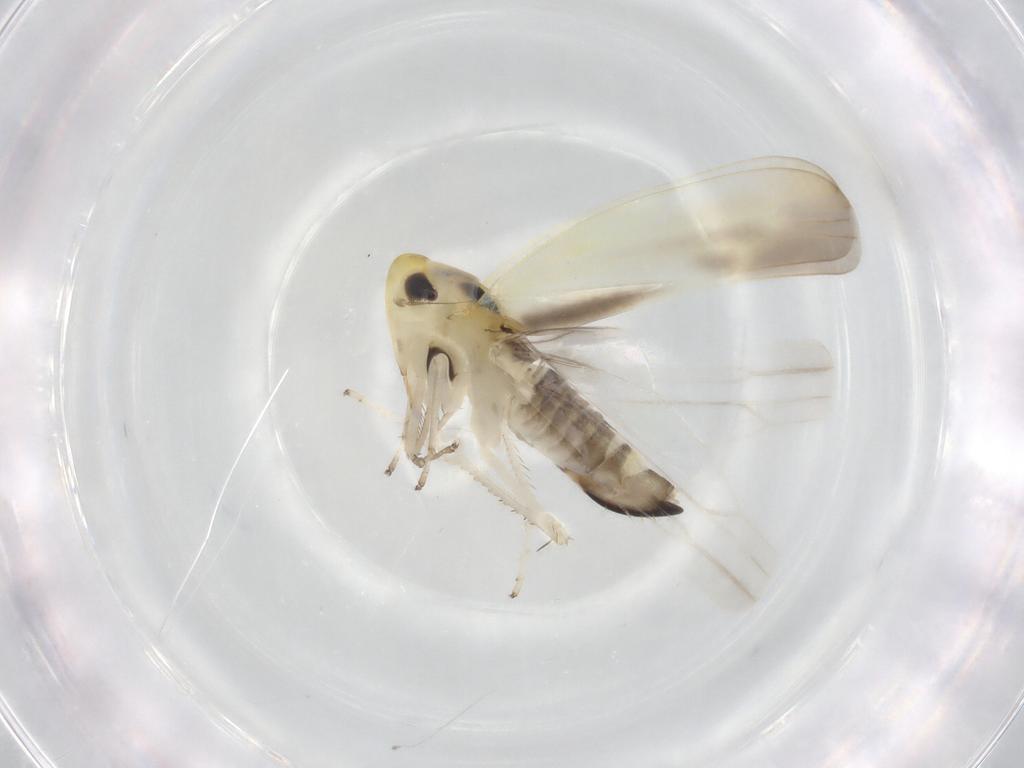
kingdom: Animalia
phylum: Arthropoda
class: Insecta
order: Hemiptera
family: Cicadellidae
